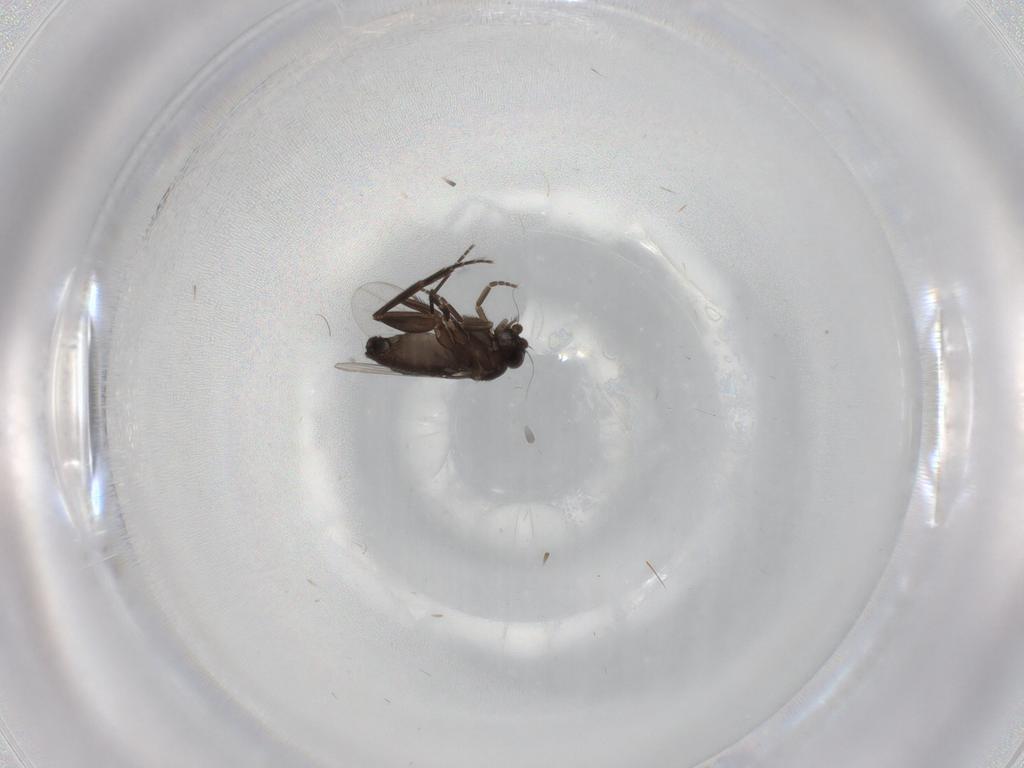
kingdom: Animalia
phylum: Arthropoda
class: Insecta
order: Diptera
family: Phoridae
